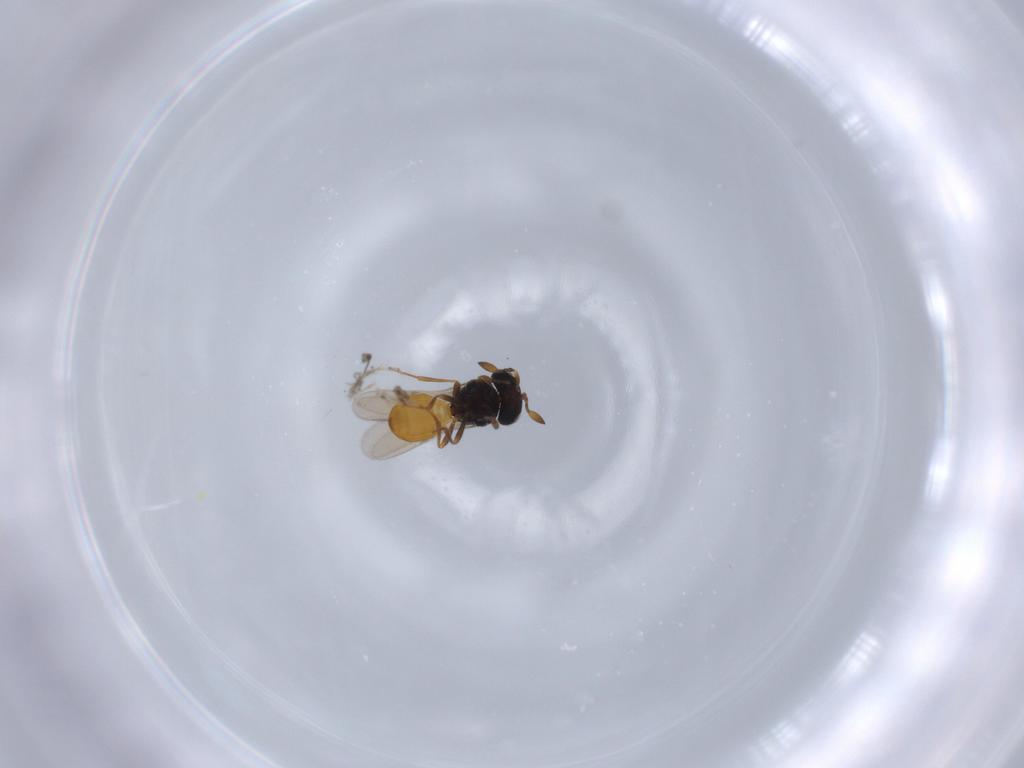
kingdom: Animalia
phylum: Arthropoda
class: Insecta
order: Hymenoptera
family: Scelionidae
